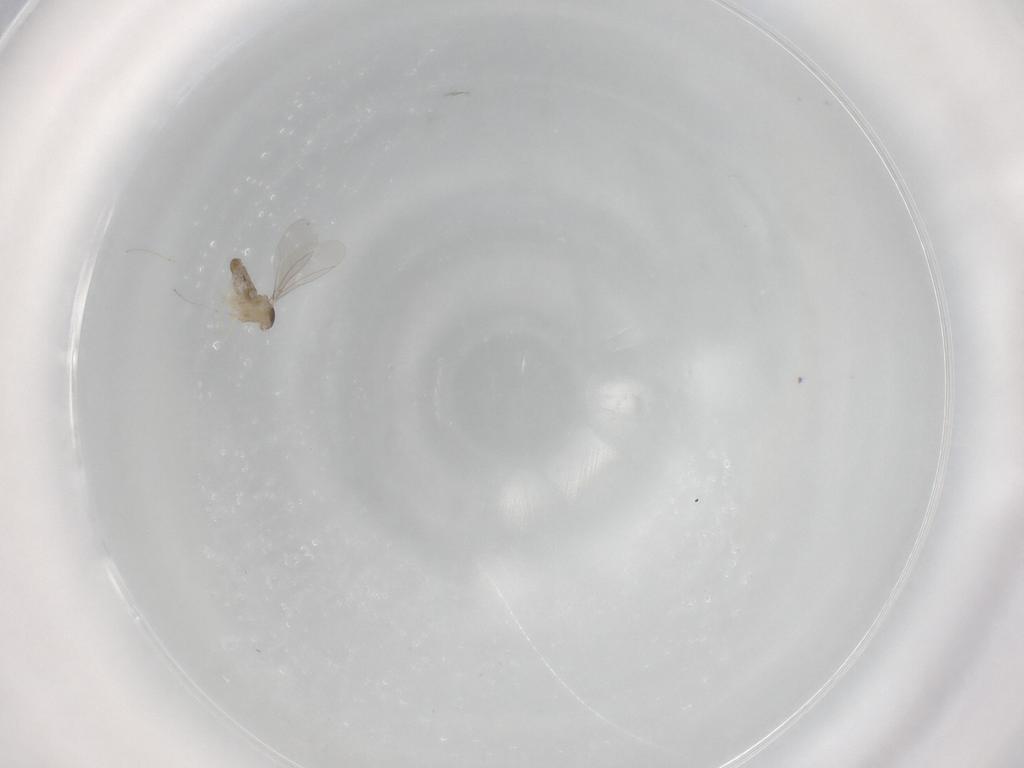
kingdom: Animalia
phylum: Arthropoda
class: Insecta
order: Diptera
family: Cecidomyiidae
